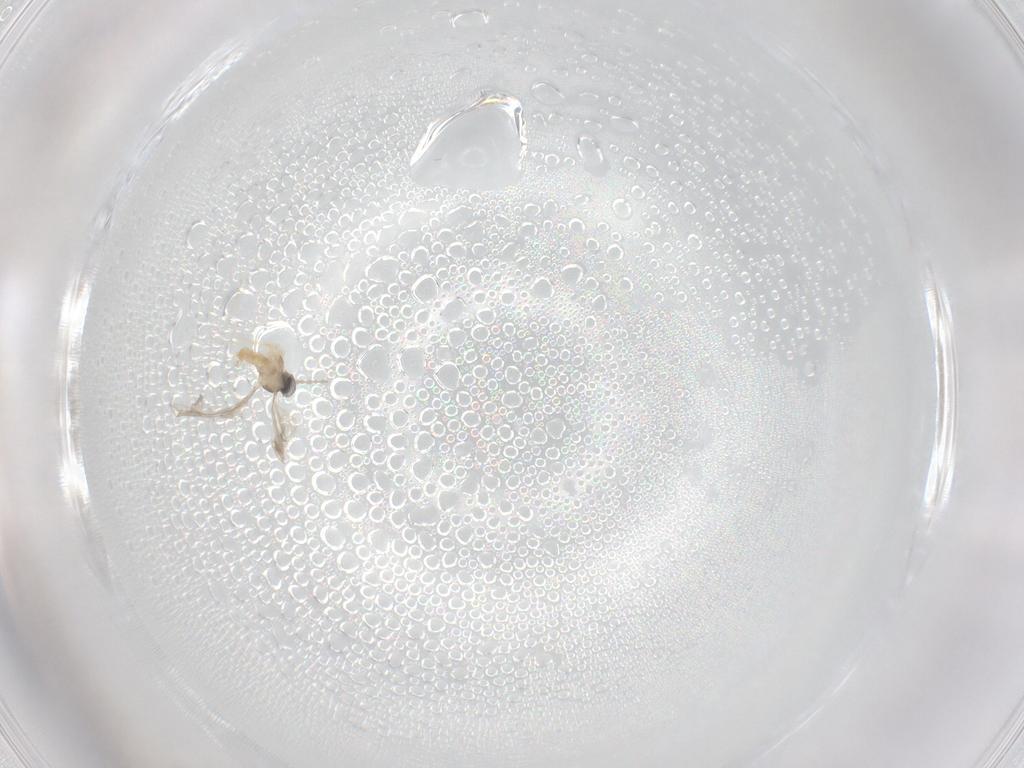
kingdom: Animalia
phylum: Arthropoda
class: Insecta
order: Diptera
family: Cecidomyiidae
